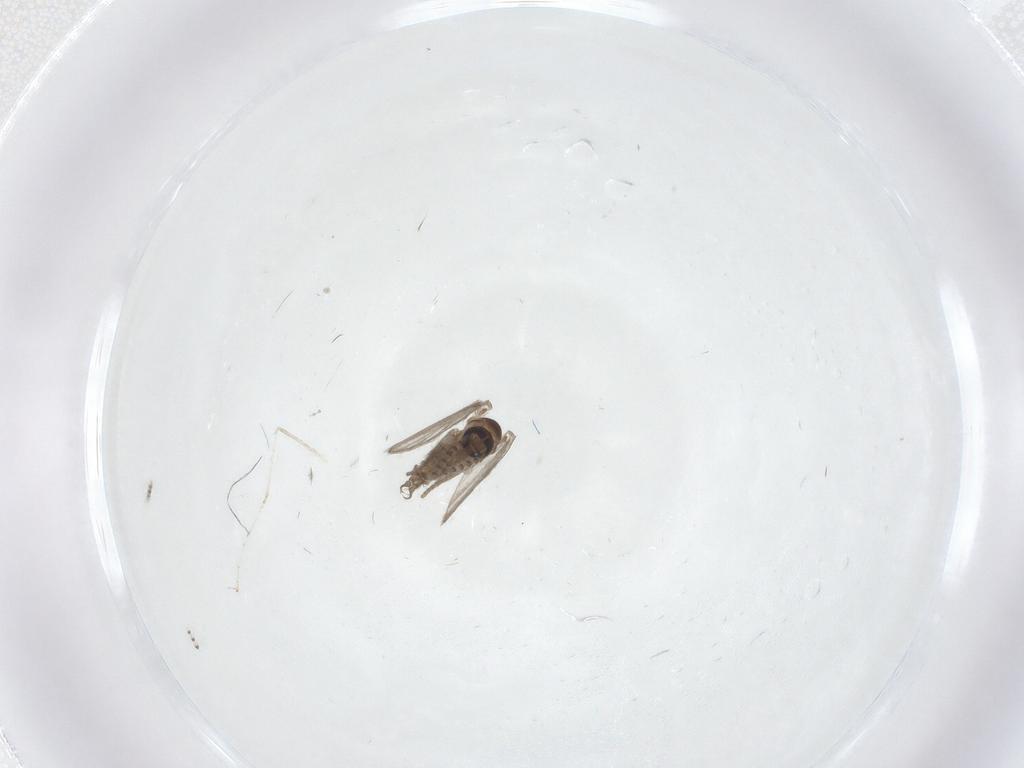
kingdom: Animalia
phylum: Arthropoda
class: Insecta
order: Diptera
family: Psychodidae
